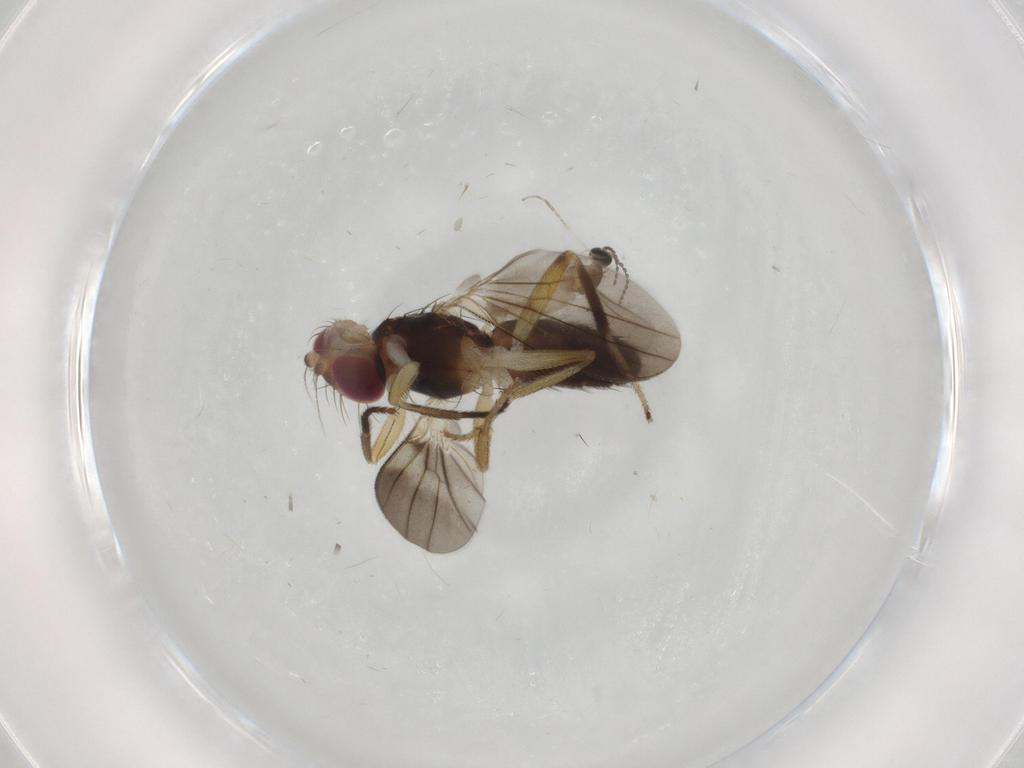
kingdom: Animalia
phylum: Arthropoda
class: Insecta
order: Diptera
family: Clusiidae
